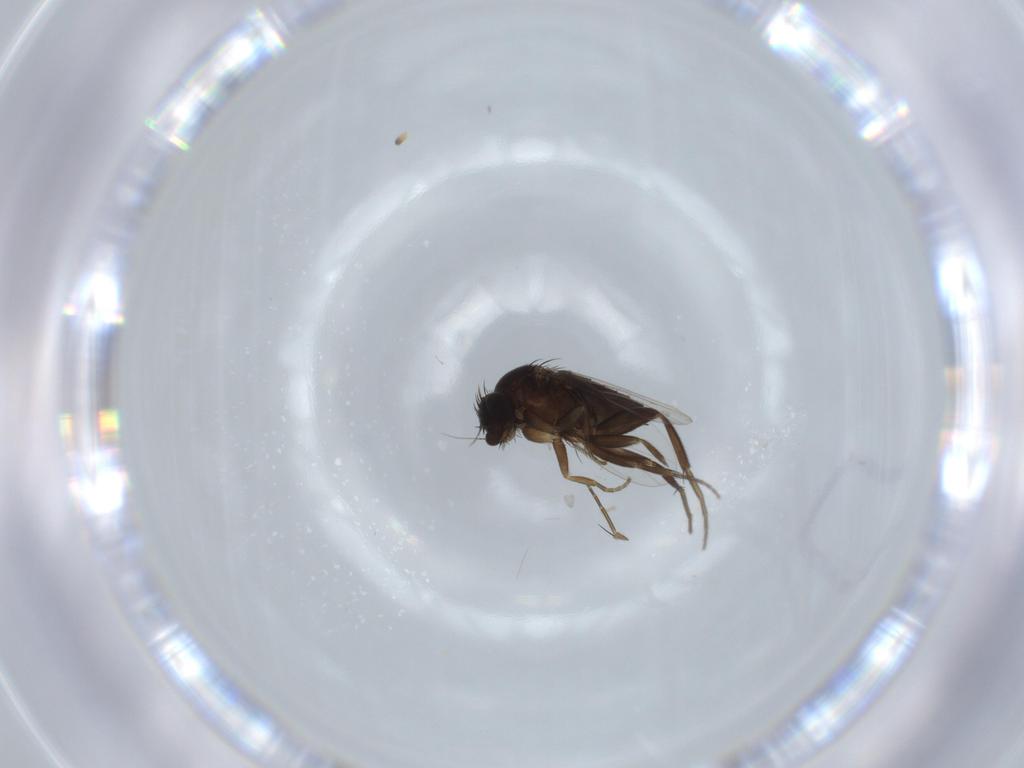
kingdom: Animalia
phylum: Arthropoda
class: Insecta
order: Diptera
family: Phoridae
